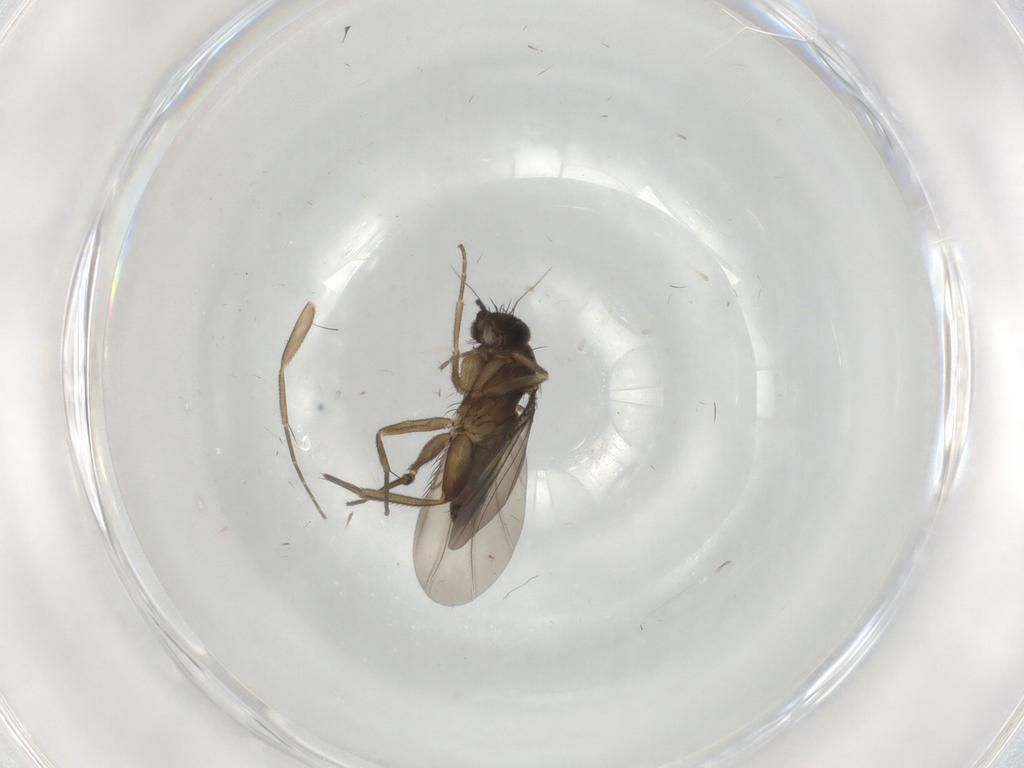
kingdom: Animalia
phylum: Arthropoda
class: Insecta
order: Diptera
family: Phoridae
